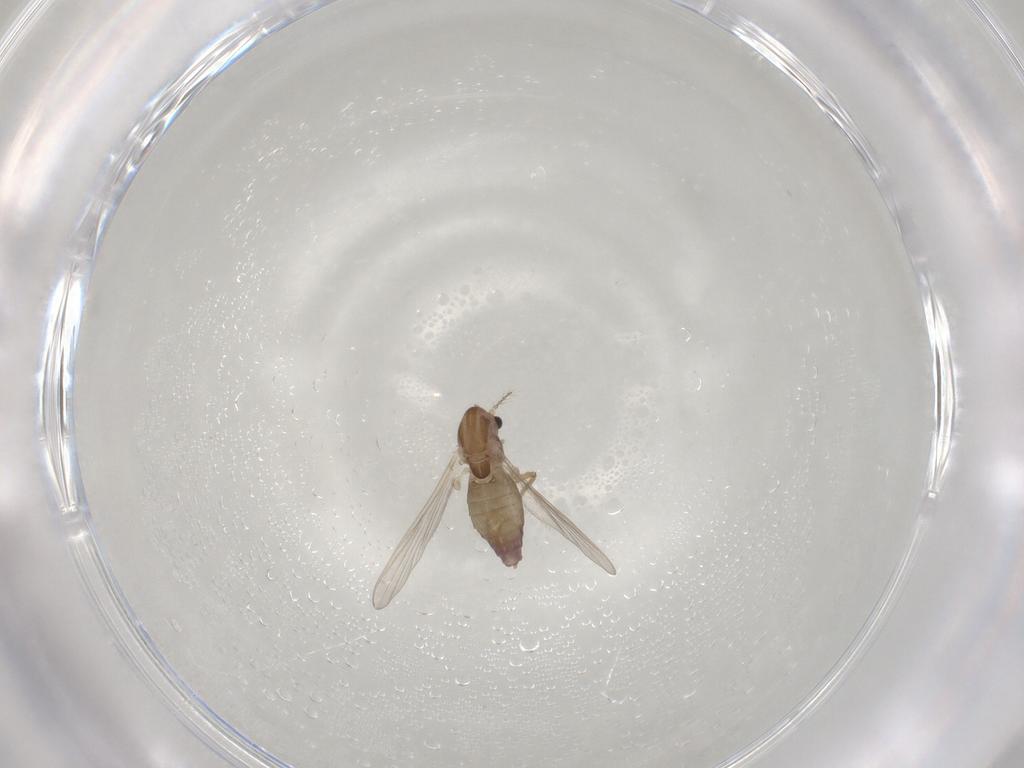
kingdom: Animalia
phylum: Arthropoda
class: Insecta
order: Diptera
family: Chironomidae
